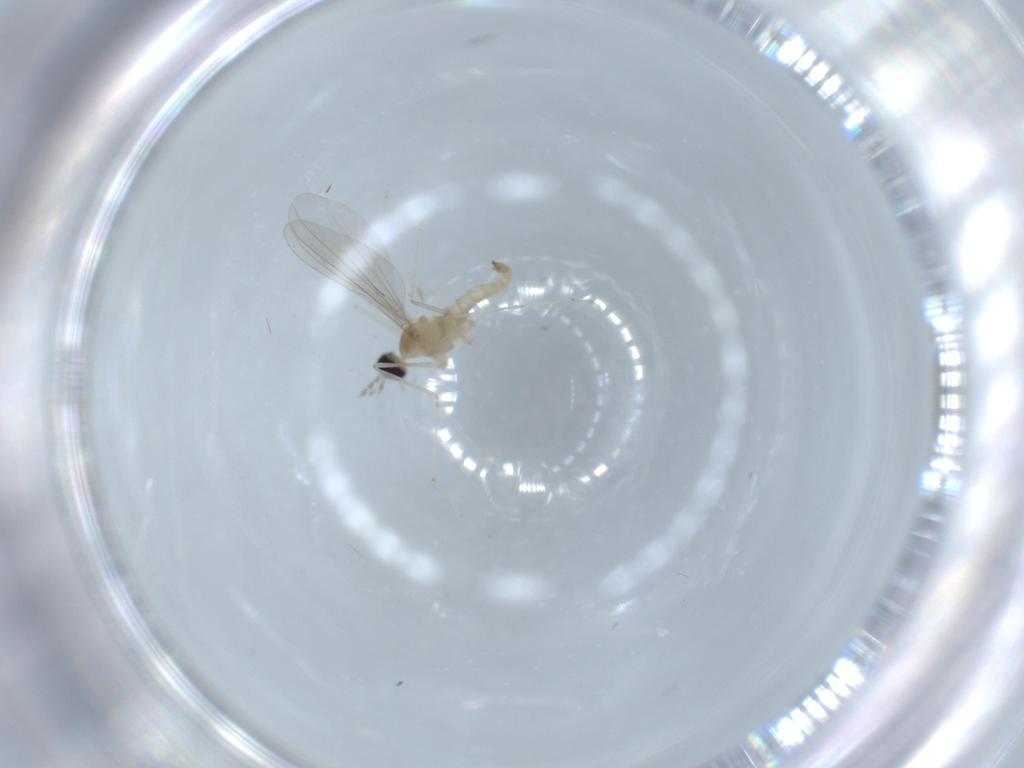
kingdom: Animalia
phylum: Arthropoda
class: Insecta
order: Diptera
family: Cecidomyiidae
